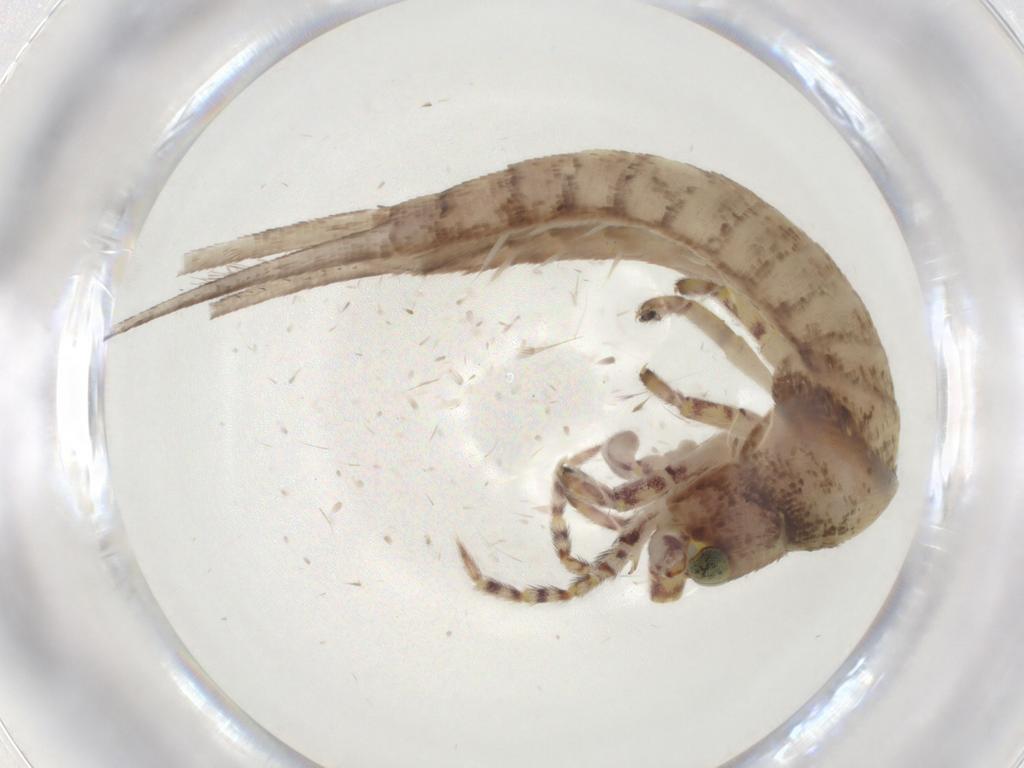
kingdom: Animalia
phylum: Arthropoda
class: Insecta
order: Archaeognatha
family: Machilidae
